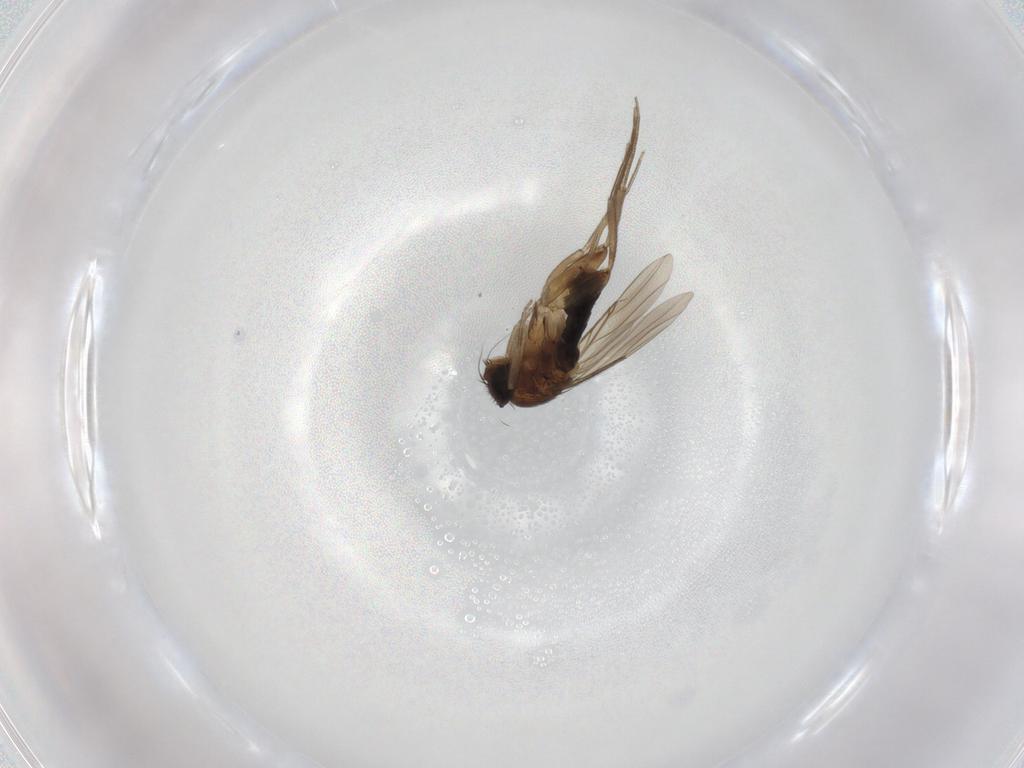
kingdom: Animalia
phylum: Arthropoda
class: Insecta
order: Diptera
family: Phoridae
